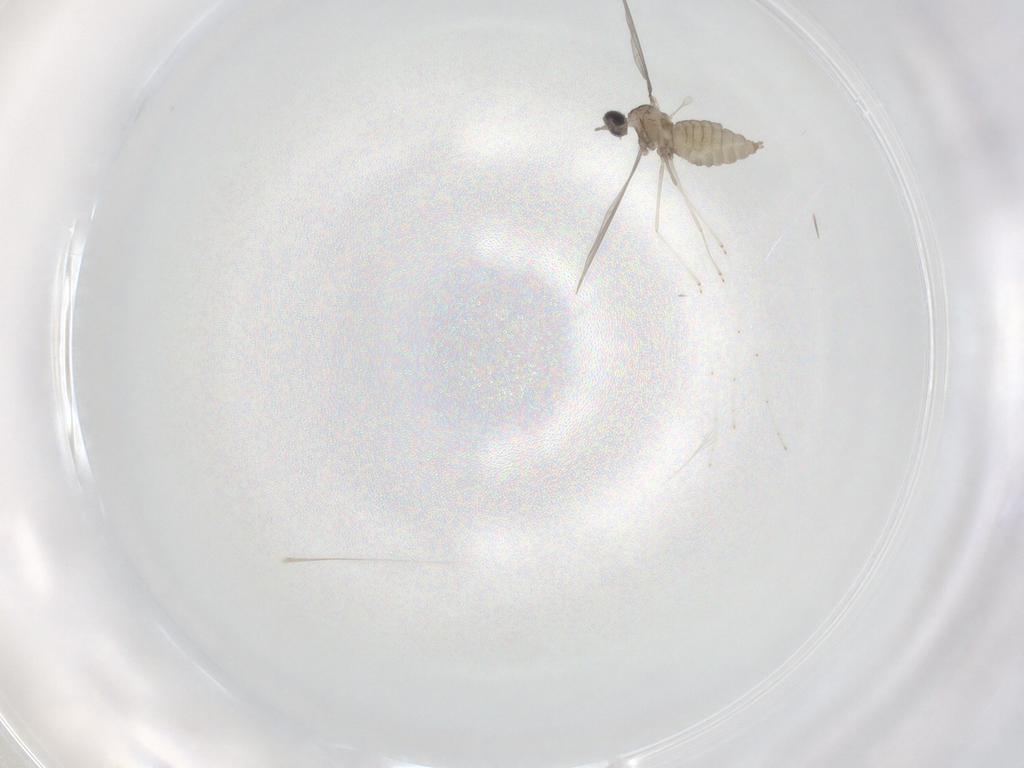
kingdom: Animalia
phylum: Arthropoda
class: Insecta
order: Diptera
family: Cecidomyiidae
